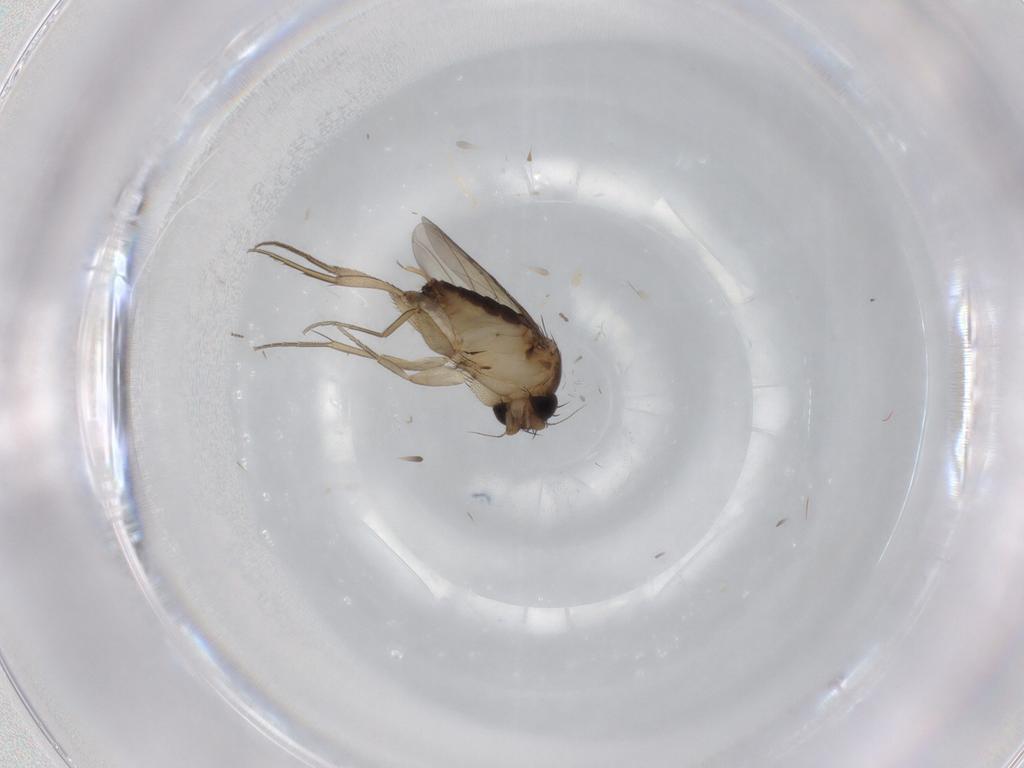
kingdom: Animalia
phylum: Arthropoda
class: Insecta
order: Diptera
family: Phoridae
